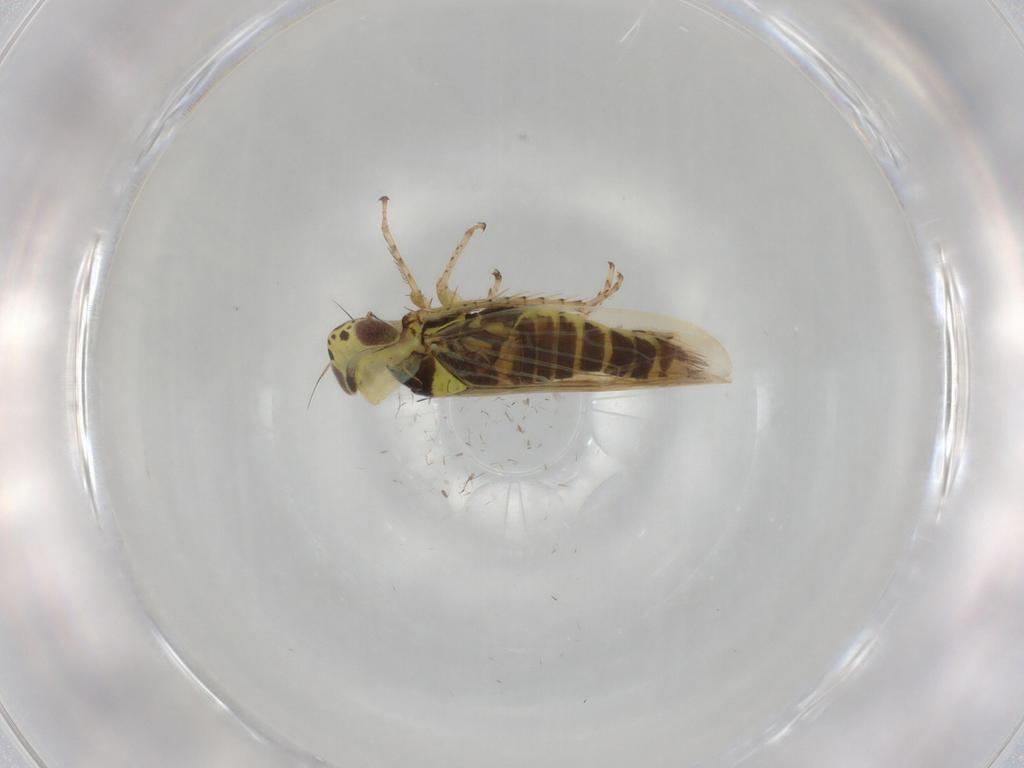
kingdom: Animalia
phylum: Arthropoda
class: Insecta
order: Hemiptera
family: Cicadellidae
